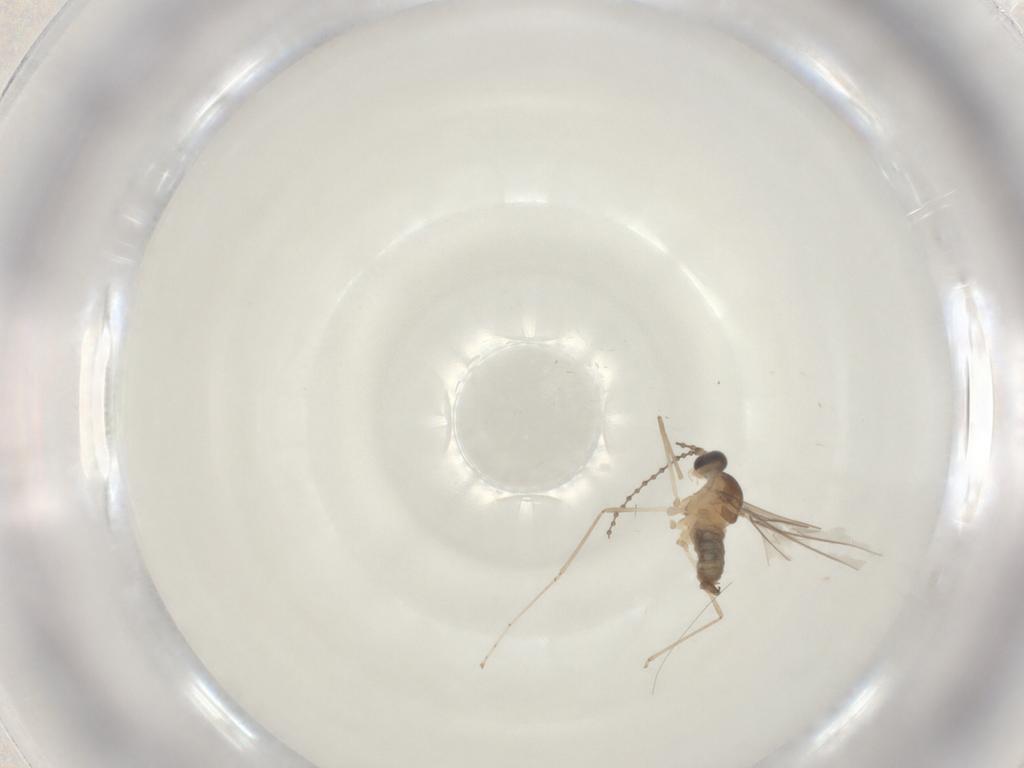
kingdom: Animalia
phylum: Arthropoda
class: Insecta
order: Diptera
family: Cecidomyiidae
